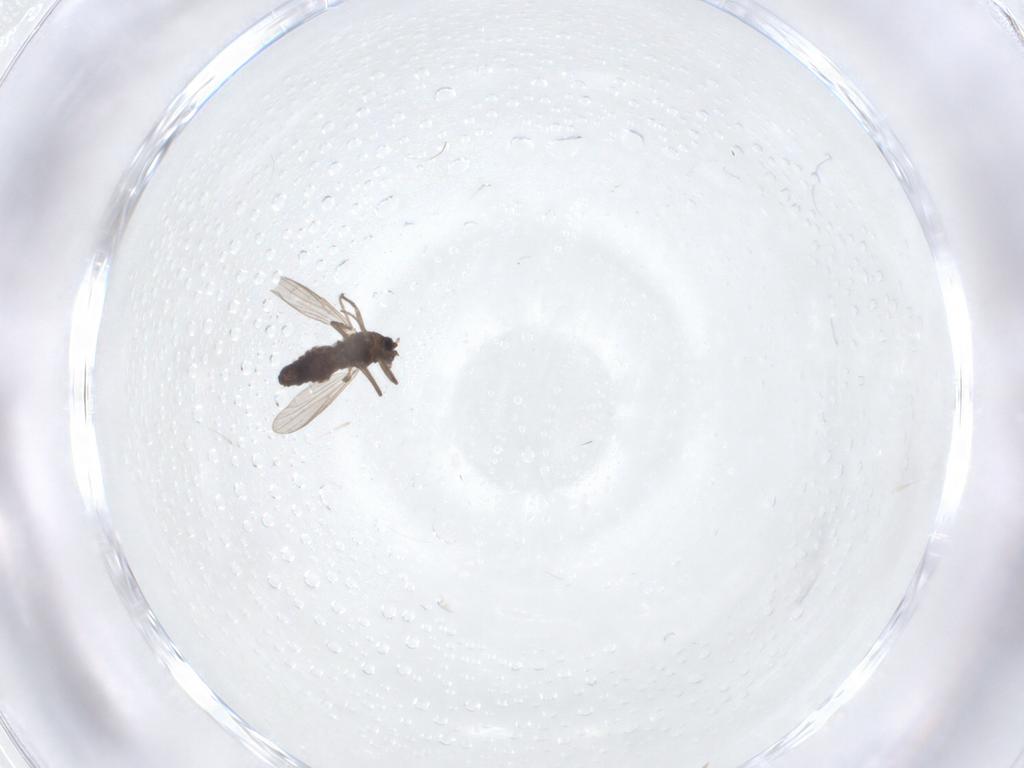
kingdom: Animalia
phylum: Arthropoda
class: Insecta
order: Diptera
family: Chironomidae
